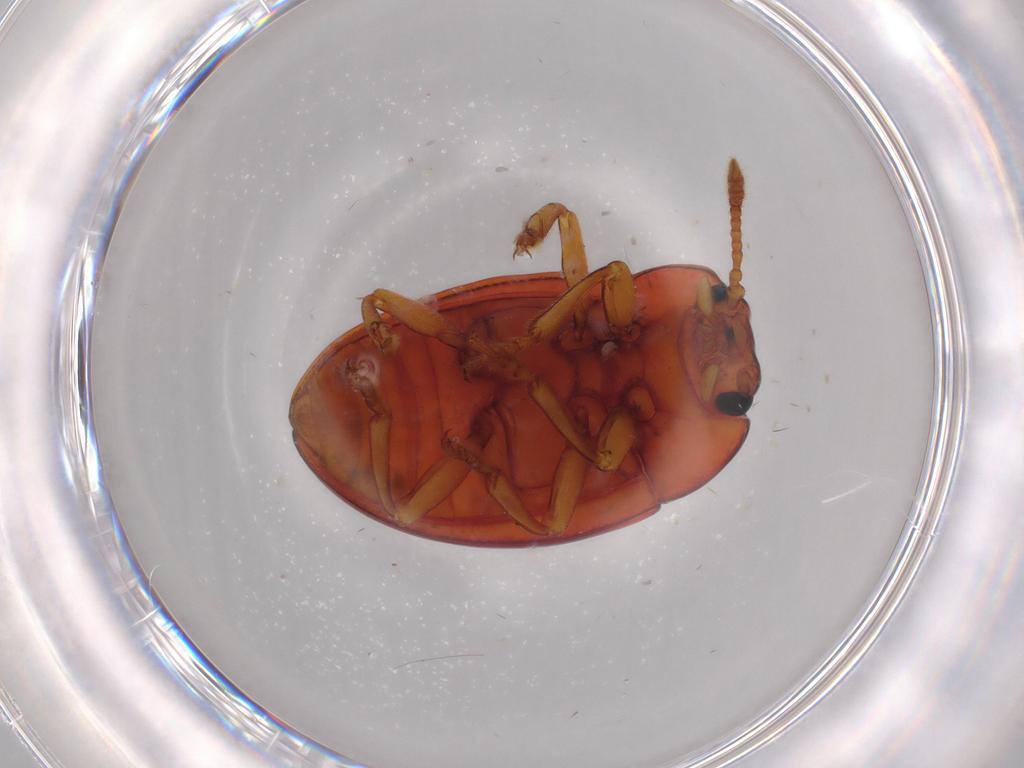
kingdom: Animalia
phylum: Arthropoda
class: Insecta
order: Coleoptera
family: Erotylidae
